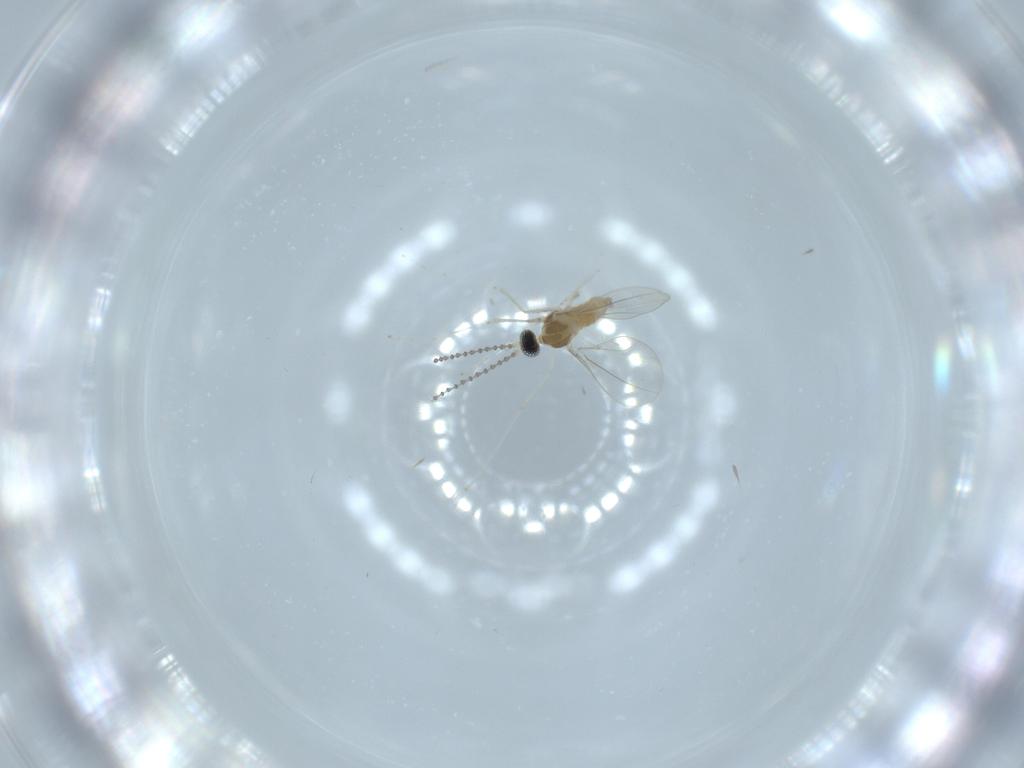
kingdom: Animalia
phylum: Arthropoda
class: Insecta
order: Diptera
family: Cecidomyiidae
